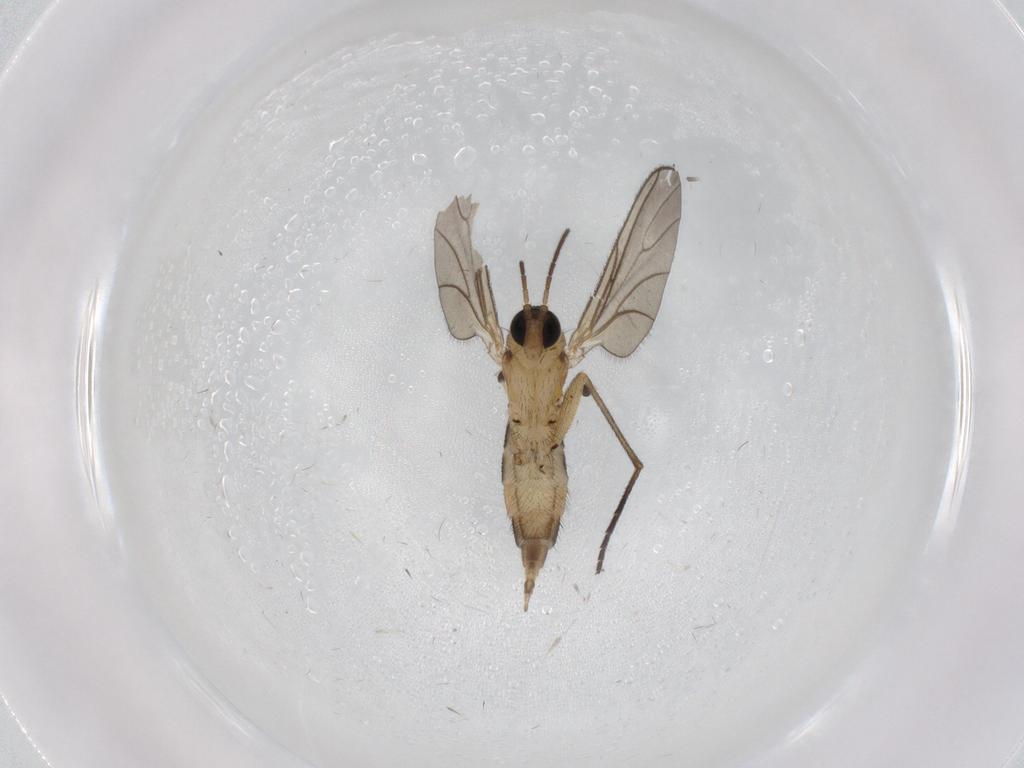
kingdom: Animalia
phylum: Arthropoda
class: Insecta
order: Diptera
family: Sciaridae
